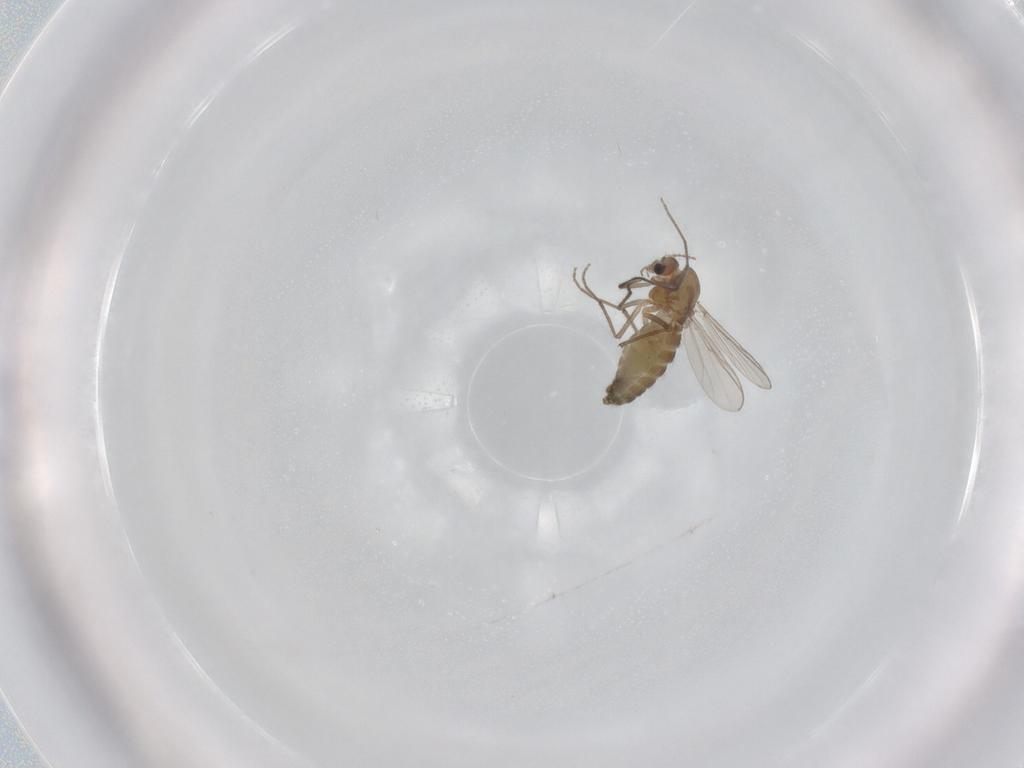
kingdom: Animalia
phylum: Arthropoda
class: Insecta
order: Diptera
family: Chironomidae
